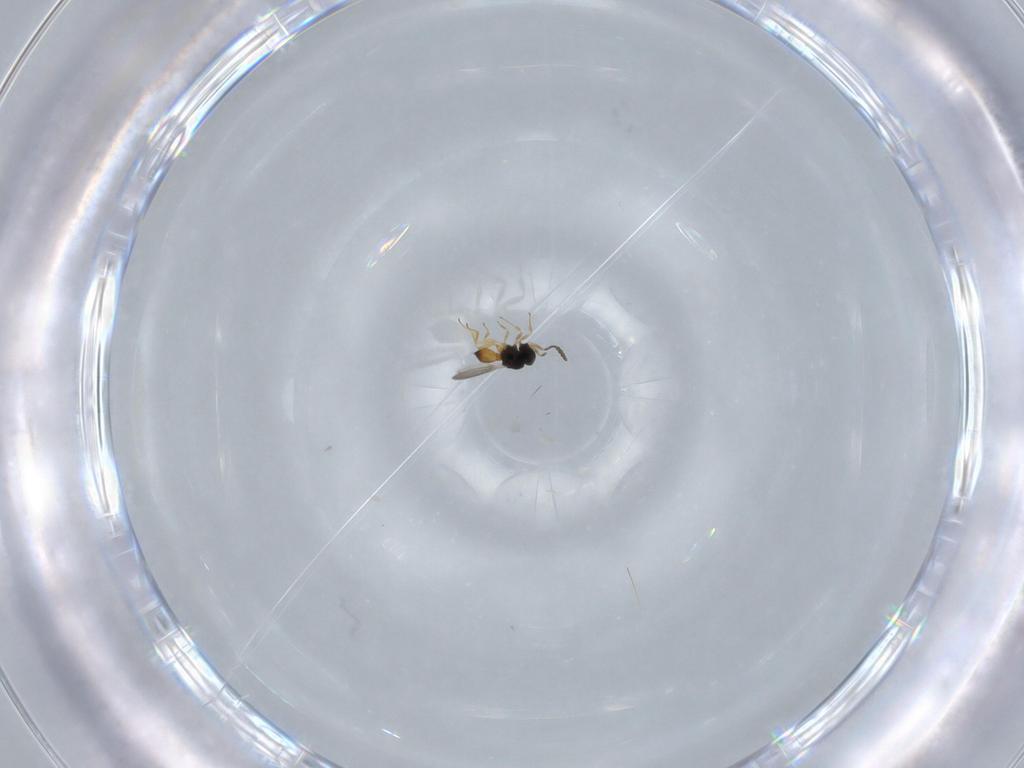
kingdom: Animalia
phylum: Arthropoda
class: Insecta
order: Hymenoptera
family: Scelionidae
